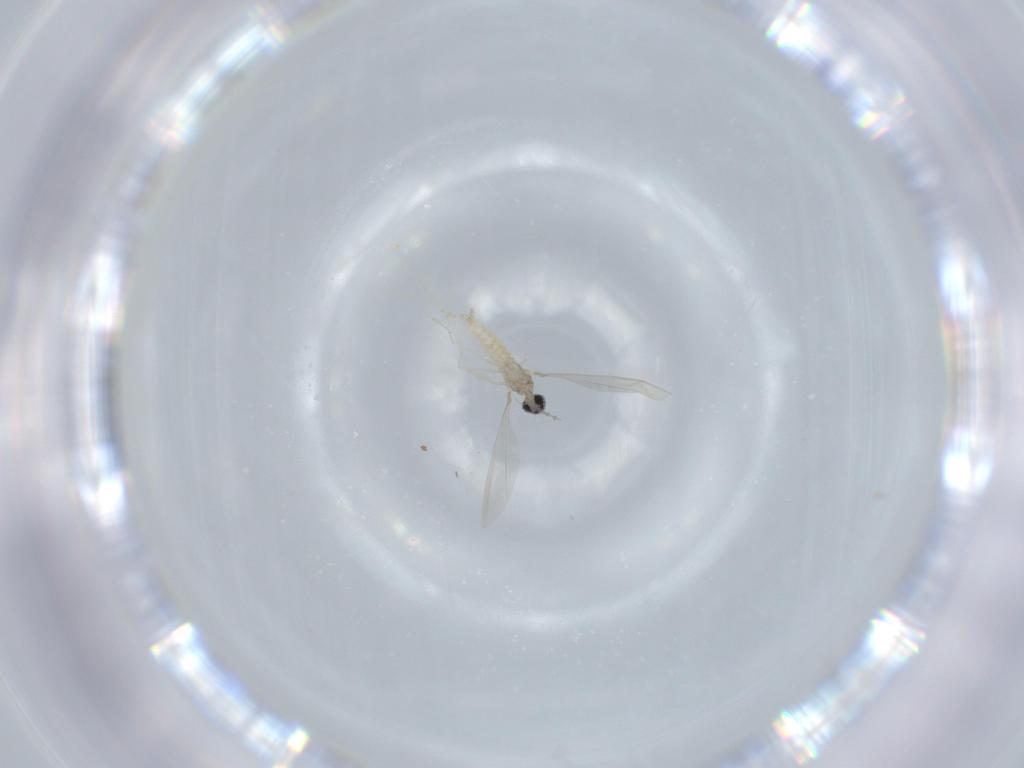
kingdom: Animalia
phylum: Arthropoda
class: Insecta
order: Diptera
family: Cecidomyiidae
